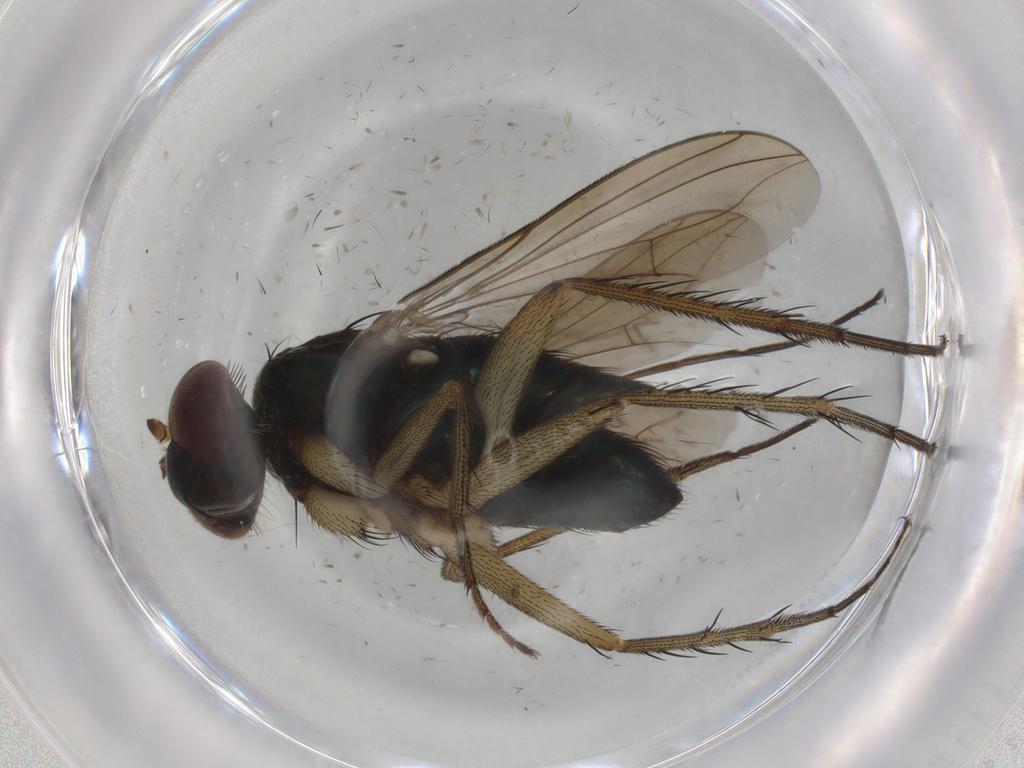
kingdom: Animalia
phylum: Arthropoda
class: Insecta
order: Diptera
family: Dolichopodidae
